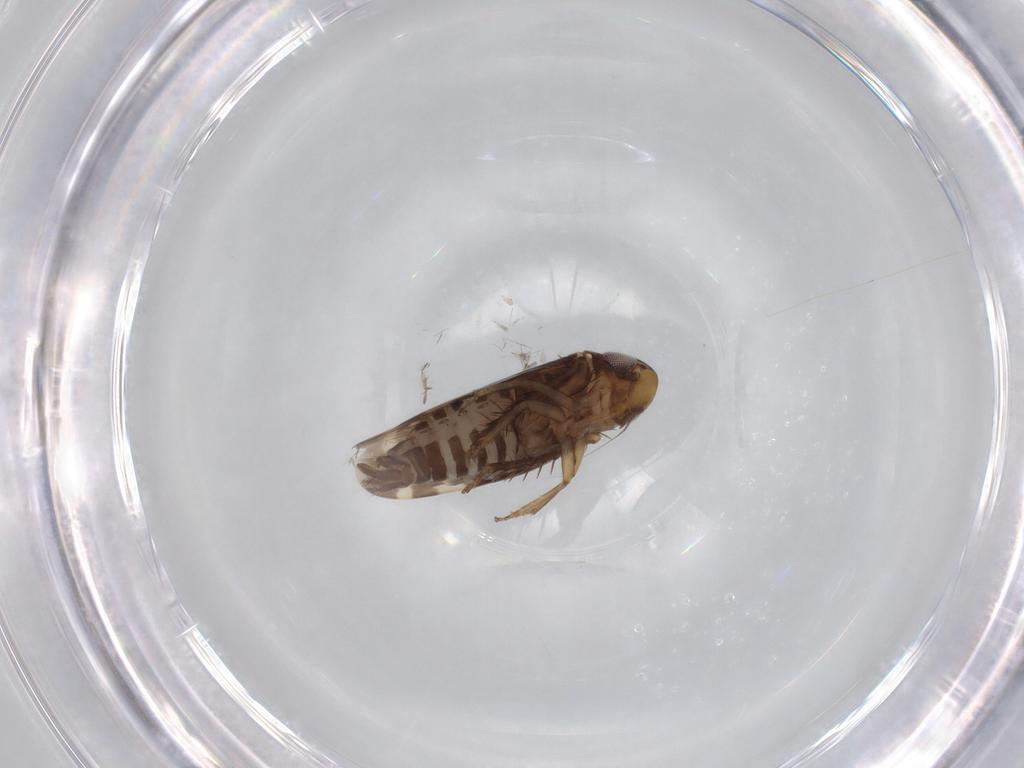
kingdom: Animalia
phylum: Arthropoda
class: Insecta
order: Hemiptera
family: Cicadellidae
